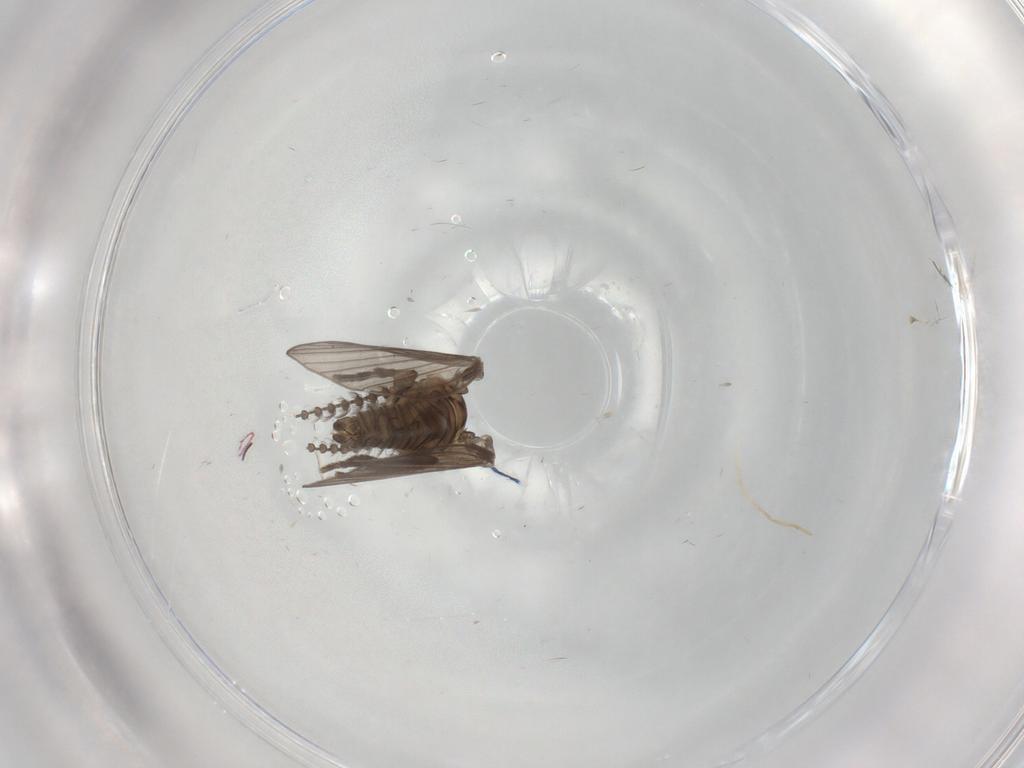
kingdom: Animalia
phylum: Arthropoda
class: Insecta
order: Diptera
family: Psychodidae
